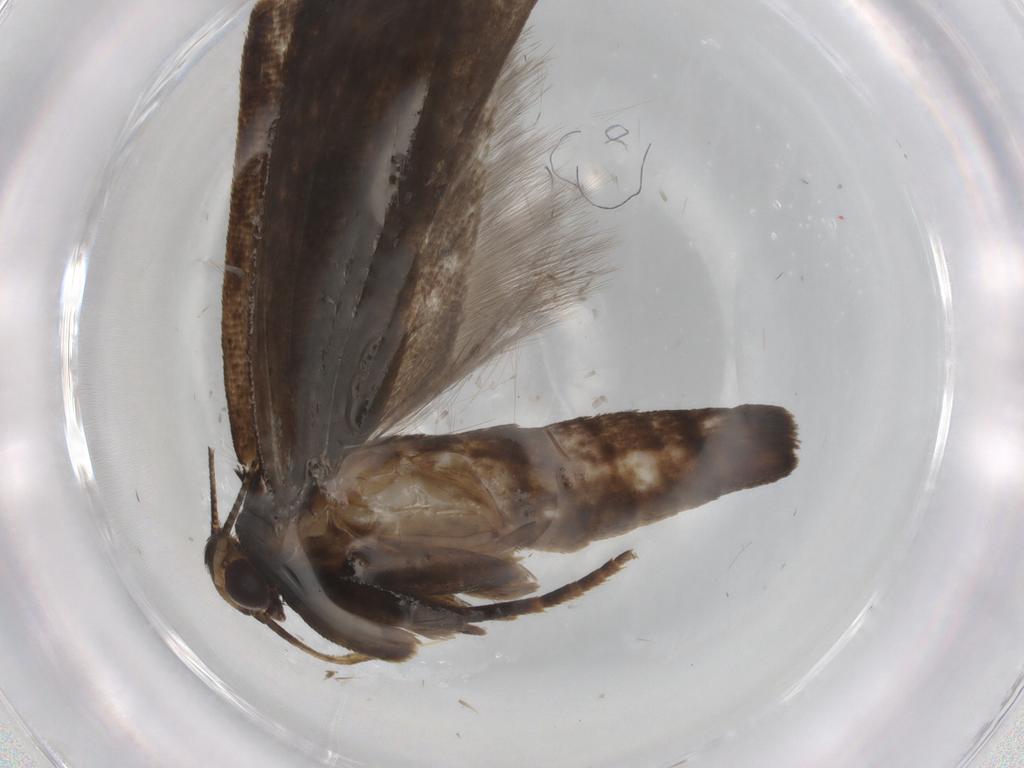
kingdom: Animalia
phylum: Arthropoda
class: Insecta
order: Lepidoptera
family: Gelechiidae
